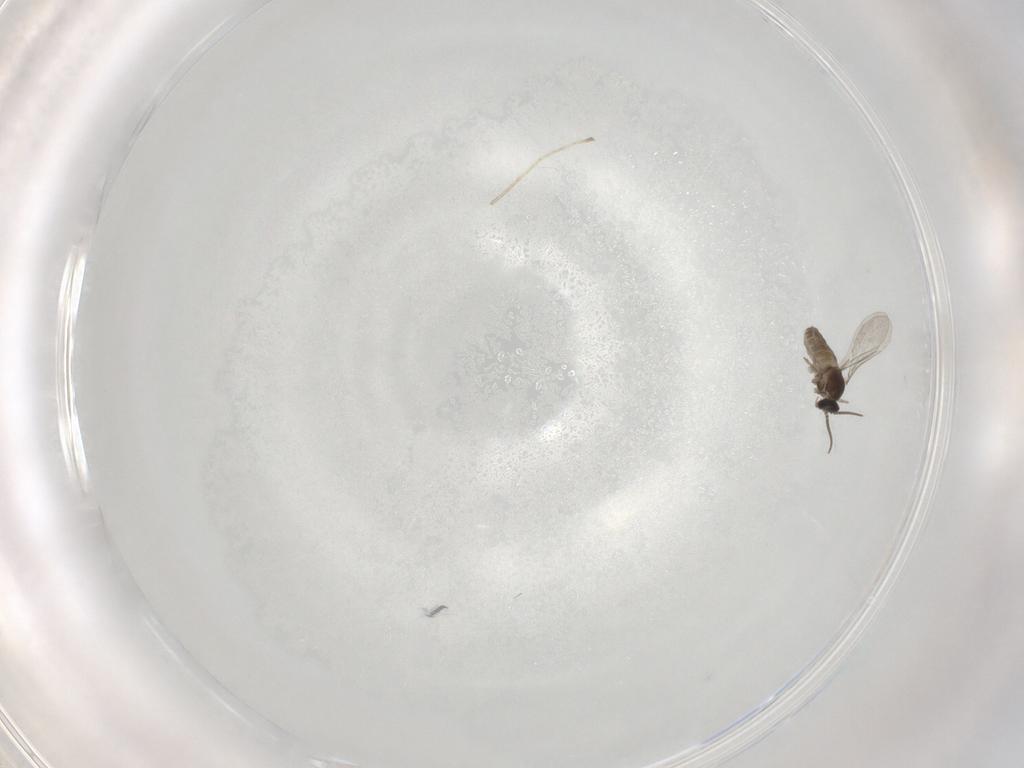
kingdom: Animalia
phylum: Arthropoda
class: Insecta
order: Diptera
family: Cecidomyiidae
